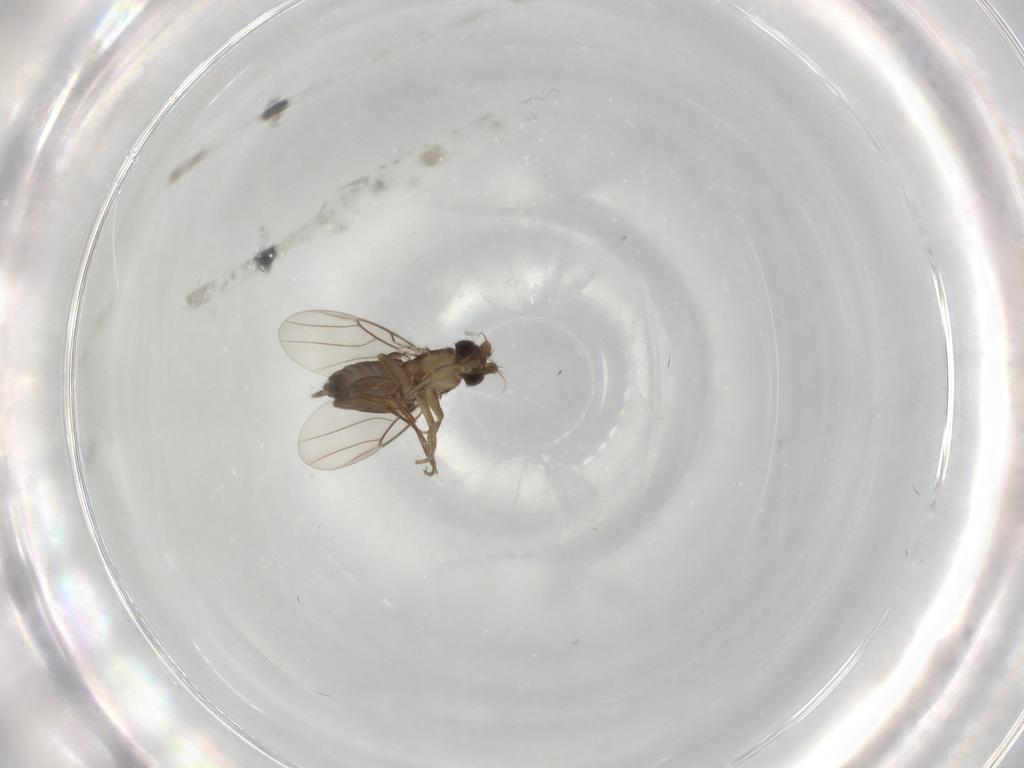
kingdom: Animalia
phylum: Arthropoda
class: Insecta
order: Diptera
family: Phoridae
